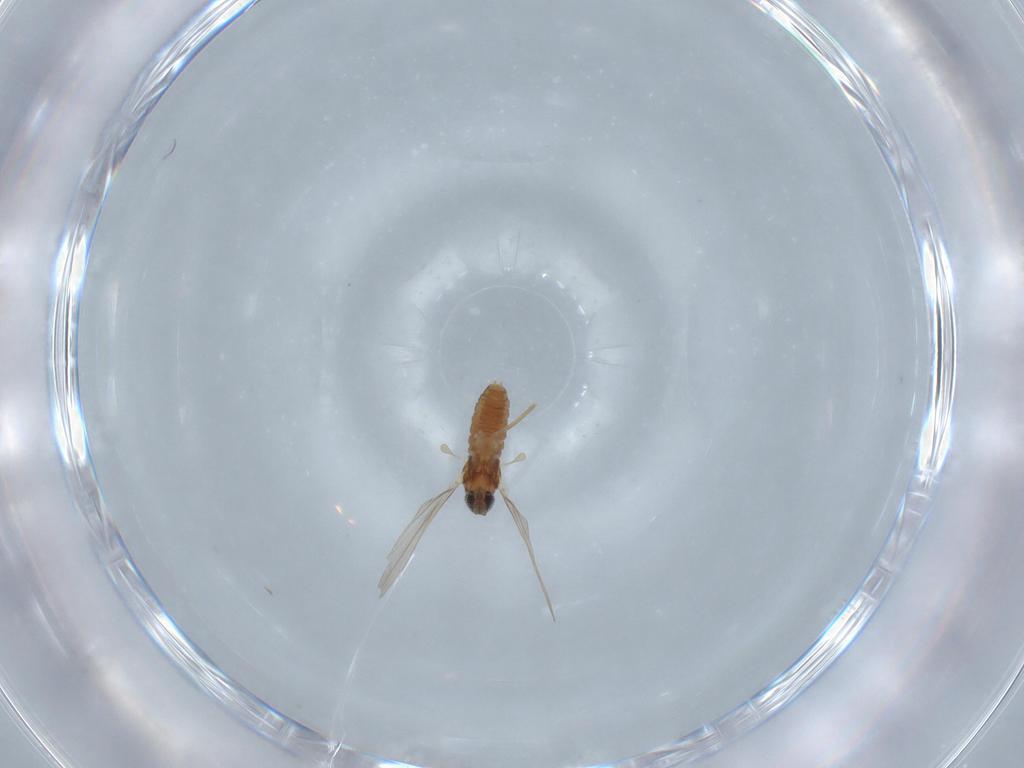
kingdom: Animalia
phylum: Arthropoda
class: Insecta
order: Diptera
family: Cecidomyiidae
